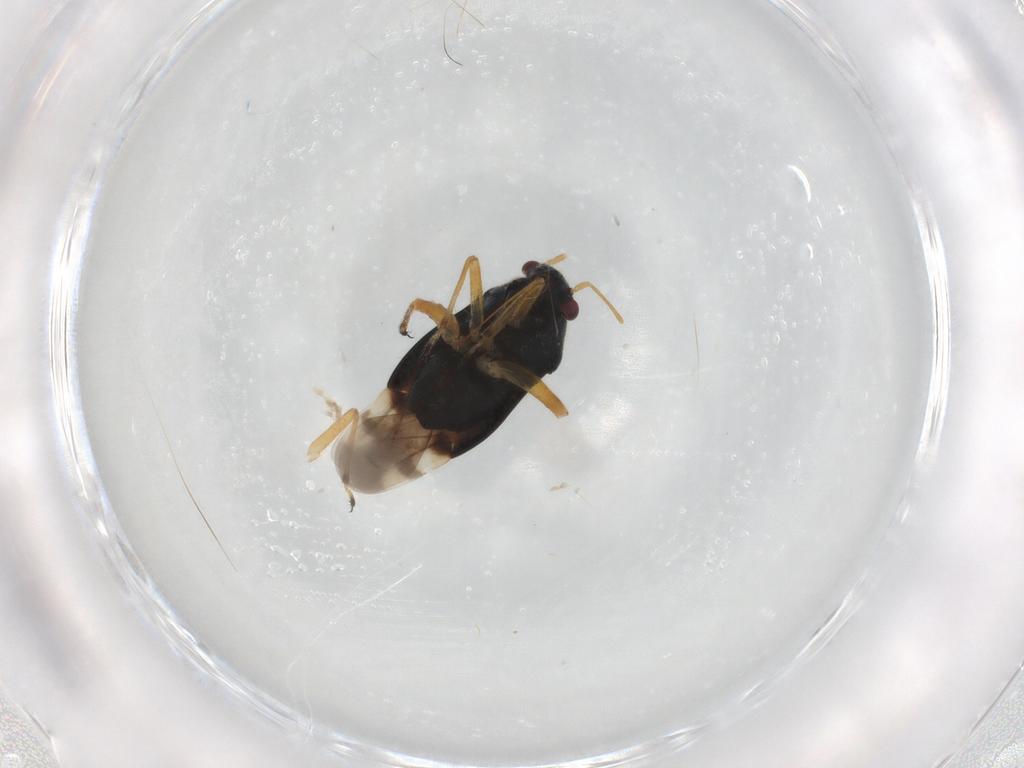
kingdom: Animalia
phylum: Arthropoda
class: Insecta
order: Hemiptera
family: Miridae
